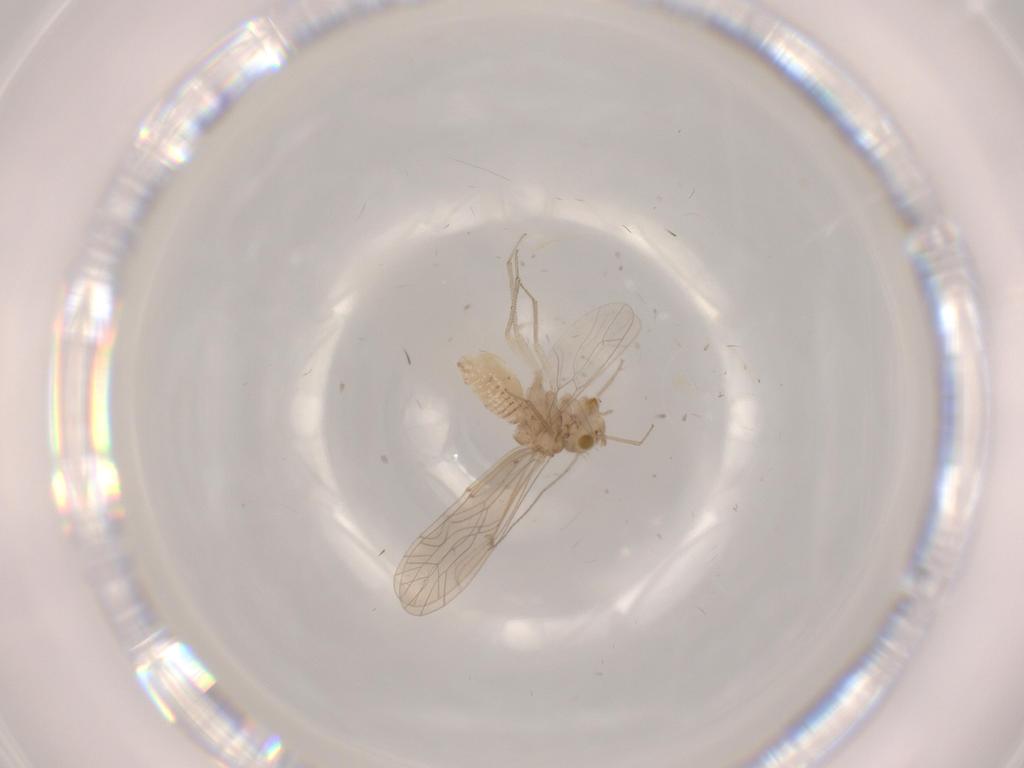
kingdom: Animalia
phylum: Arthropoda
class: Insecta
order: Psocodea
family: Lachesillidae
